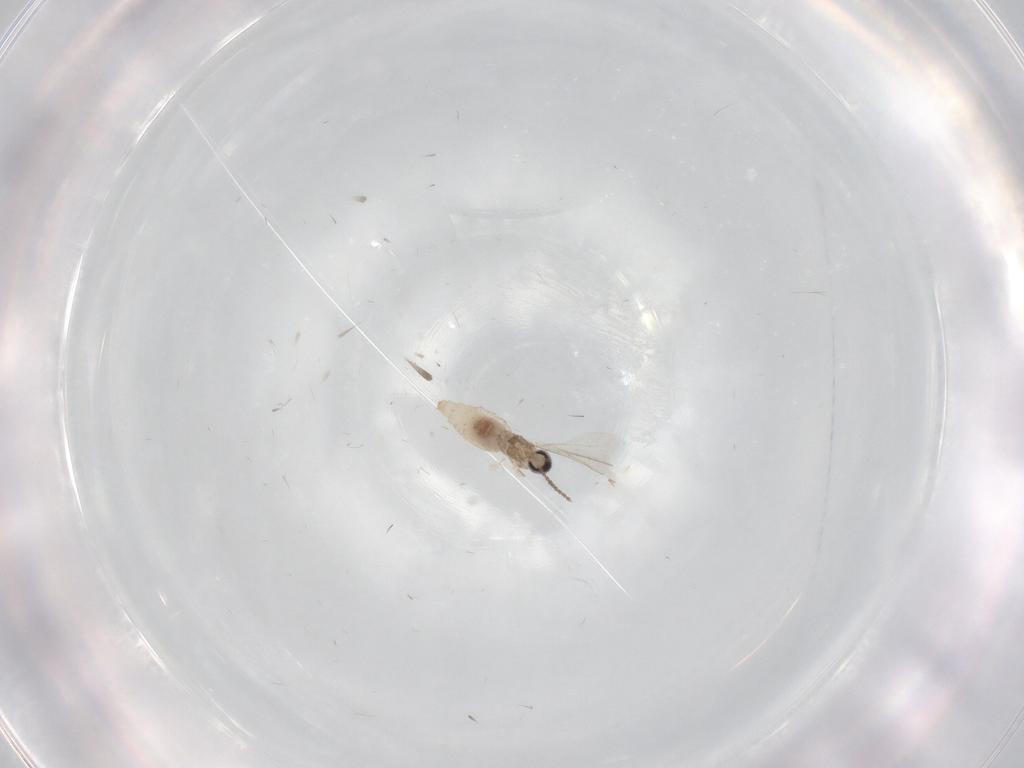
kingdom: Animalia
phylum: Arthropoda
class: Insecta
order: Diptera
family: Cecidomyiidae
